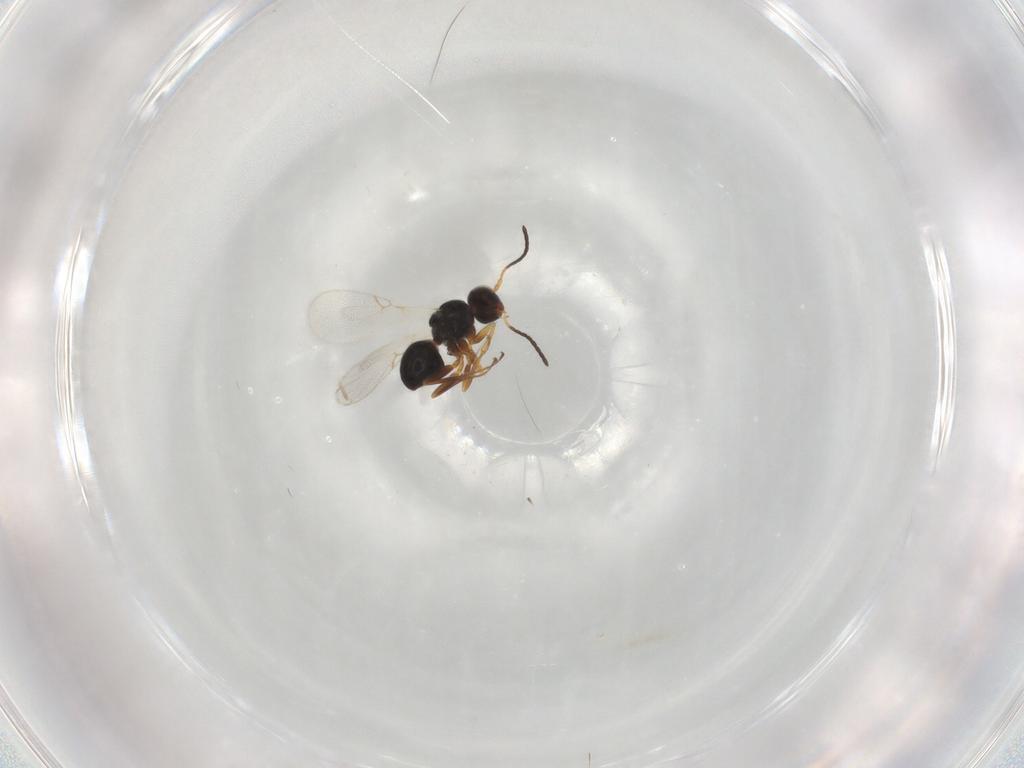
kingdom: Animalia
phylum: Arthropoda
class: Insecta
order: Hymenoptera
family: Figitidae
